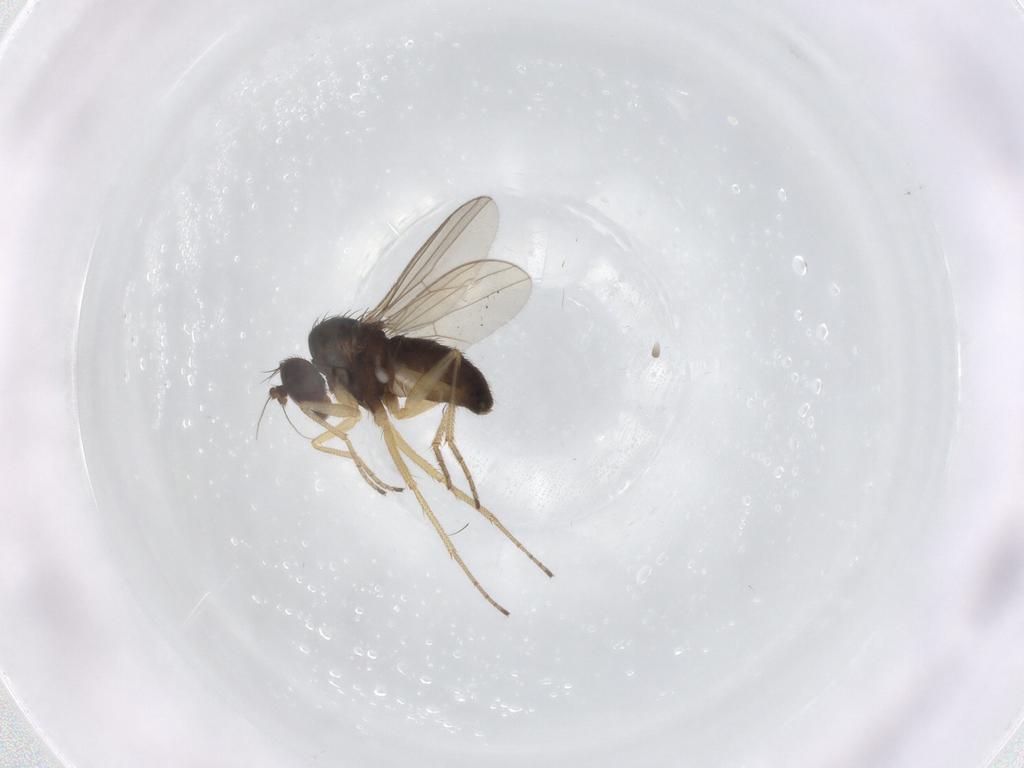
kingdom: Animalia
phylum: Arthropoda
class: Insecta
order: Diptera
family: Dolichopodidae
